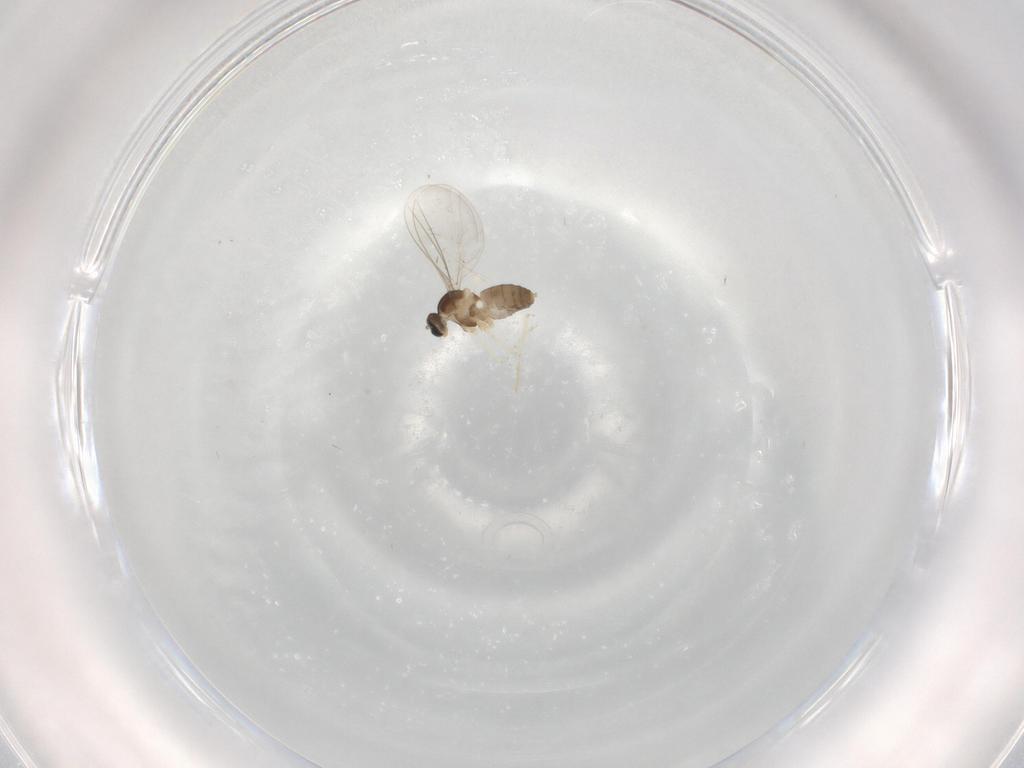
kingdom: Animalia
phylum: Arthropoda
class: Insecta
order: Diptera
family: Cecidomyiidae
